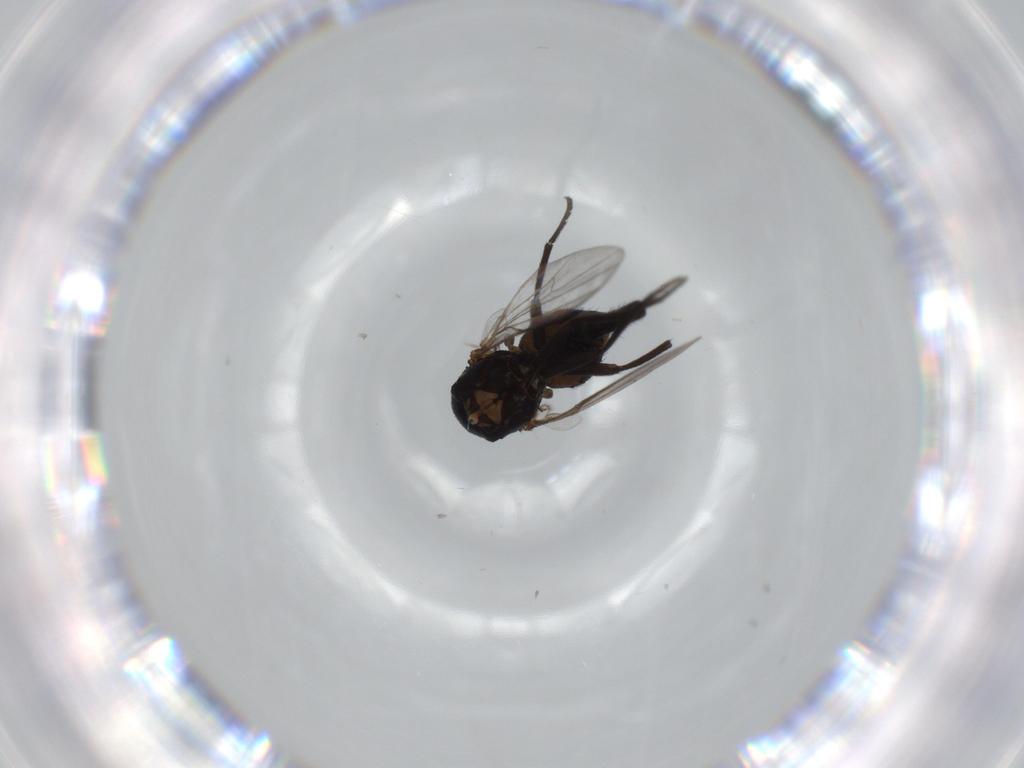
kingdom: Animalia
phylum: Arthropoda
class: Insecta
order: Diptera
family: Agromyzidae
